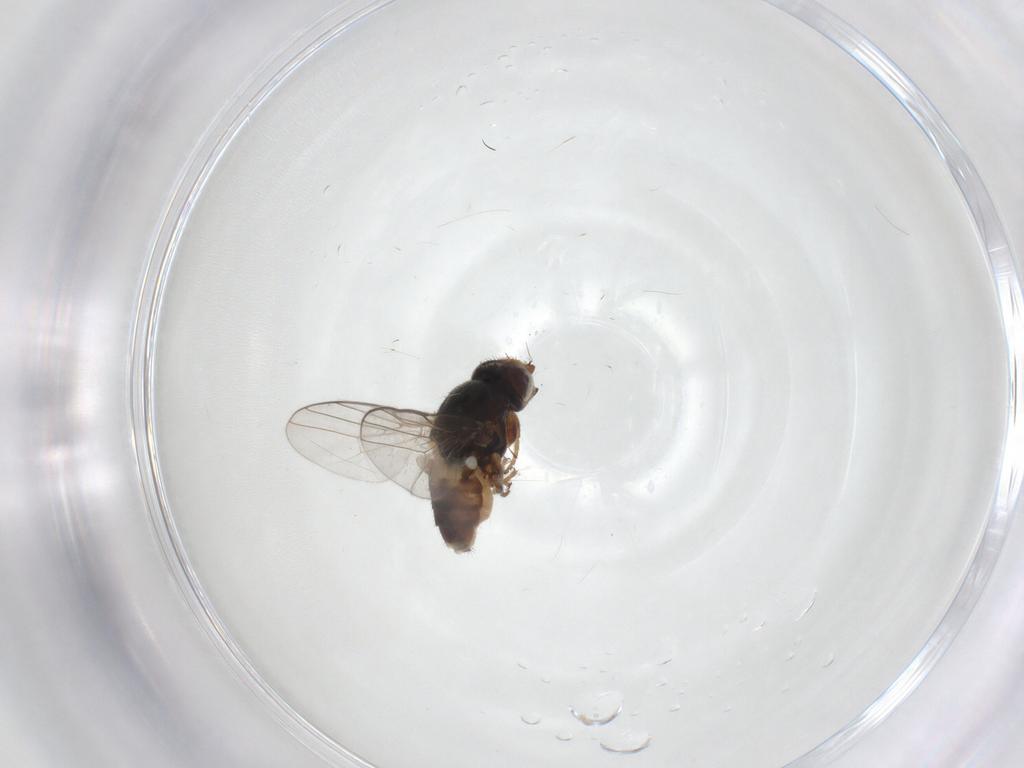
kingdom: Animalia
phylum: Arthropoda
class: Insecta
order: Diptera
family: Chloropidae
